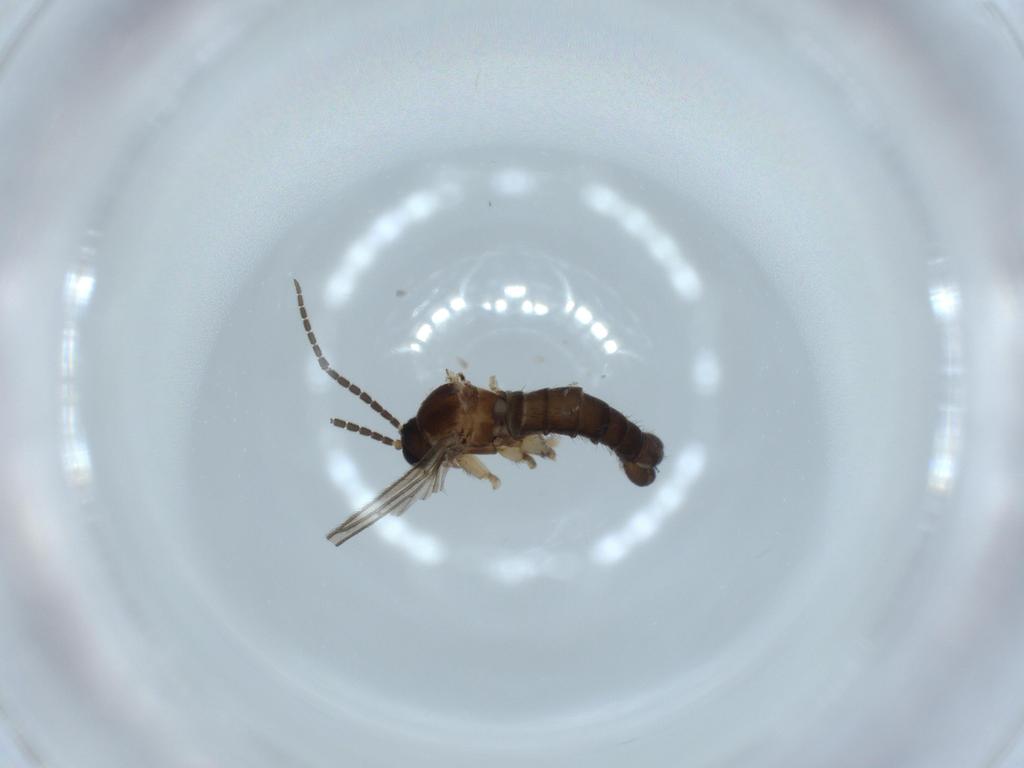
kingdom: Animalia
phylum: Arthropoda
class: Insecta
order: Diptera
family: Sciaridae
